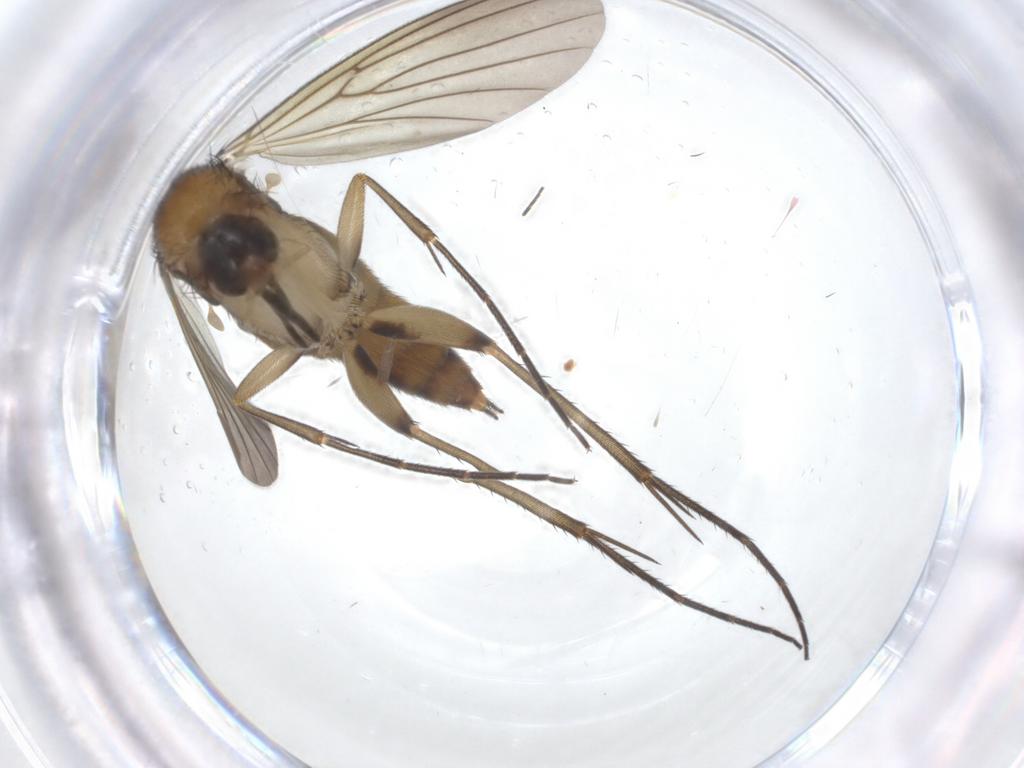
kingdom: Animalia
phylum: Arthropoda
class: Insecta
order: Diptera
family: Mycetophilidae
